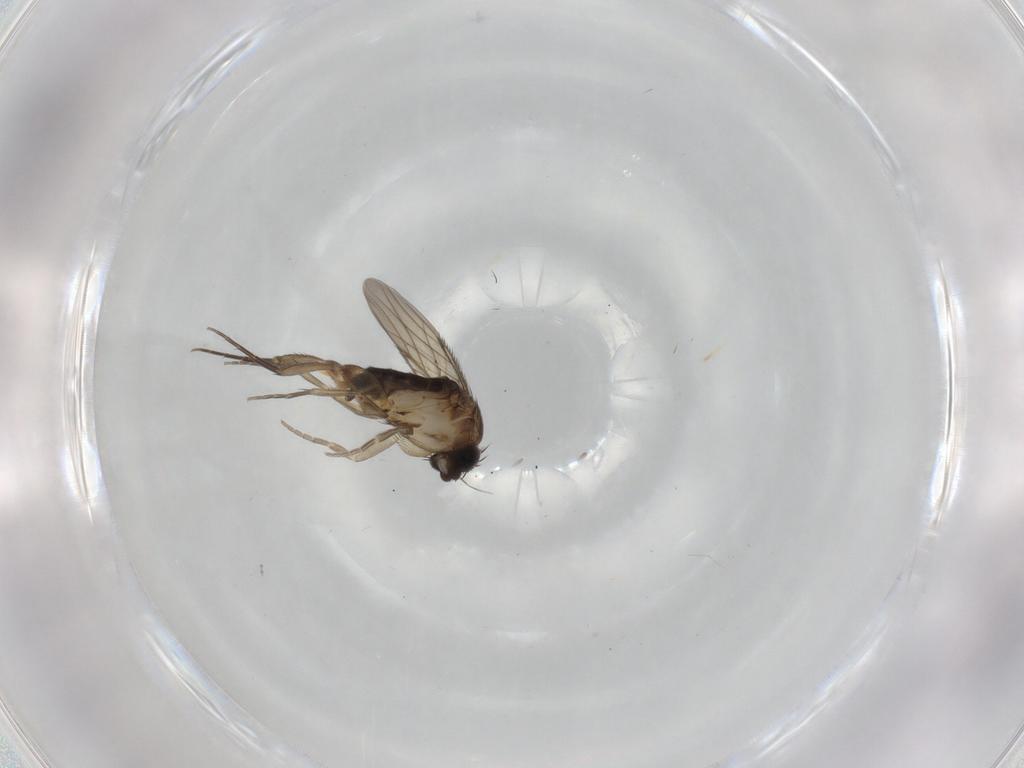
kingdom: Animalia
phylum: Arthropoda
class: Insecta
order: Diptera
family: Phoridae
